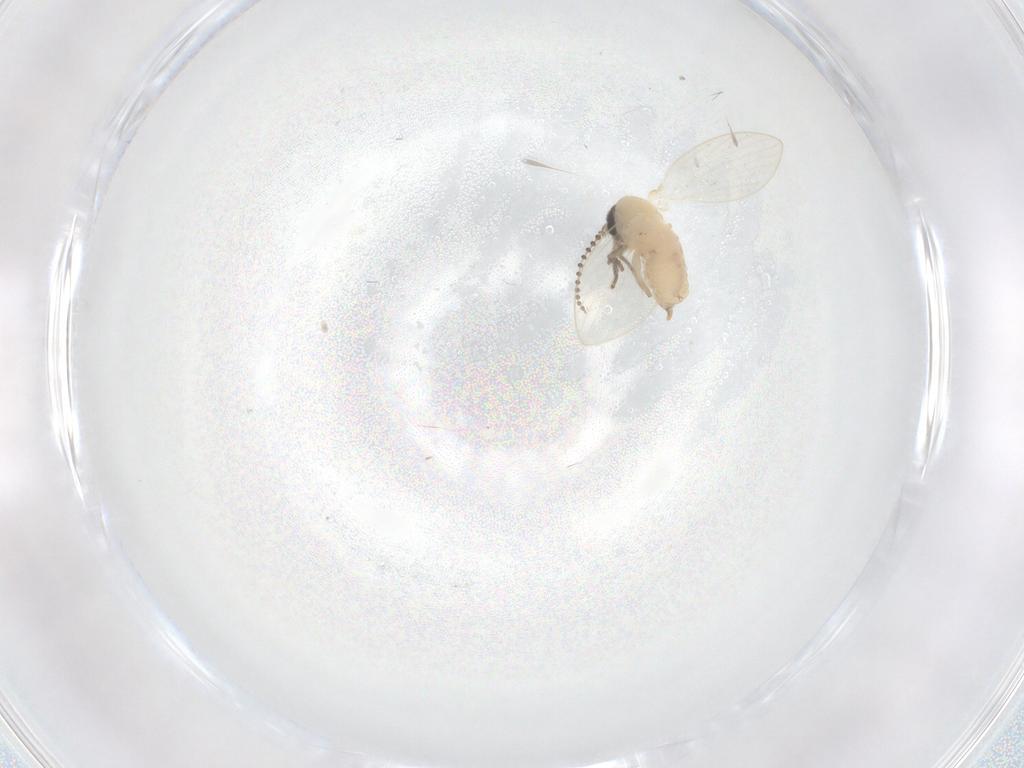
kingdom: Animalia
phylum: Arthropoda
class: Insecta
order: Diptera
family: Psychodidae
